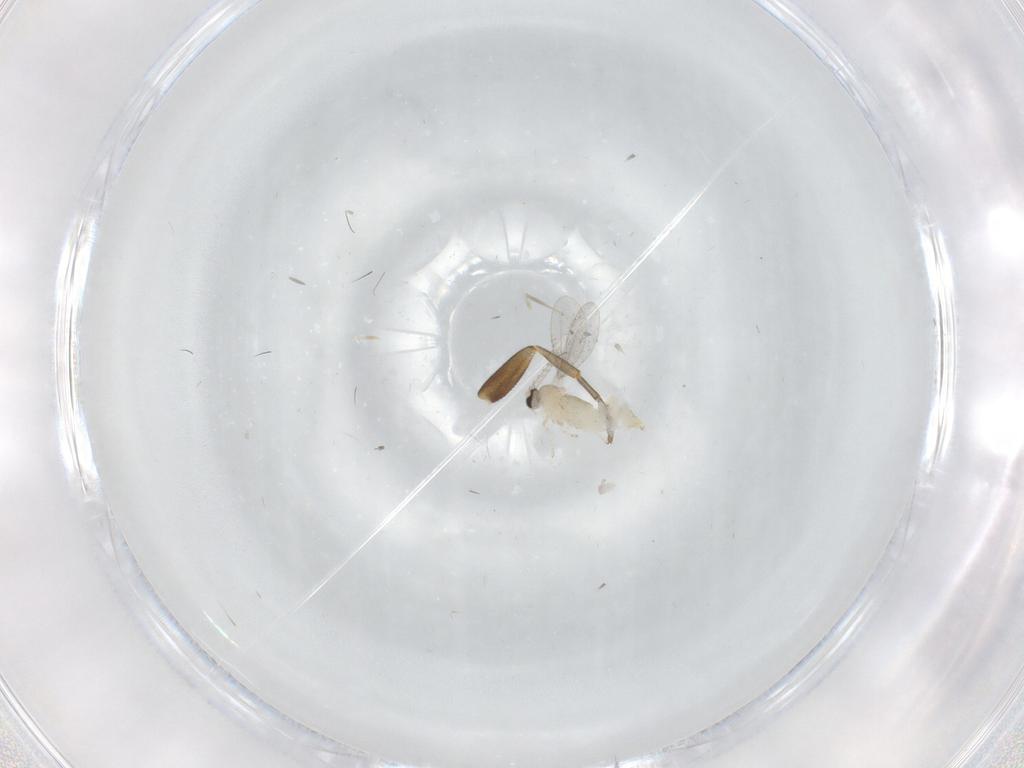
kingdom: Animalia
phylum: Arthropoda
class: Insecta
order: Diptera
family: Cecidomyiidae
